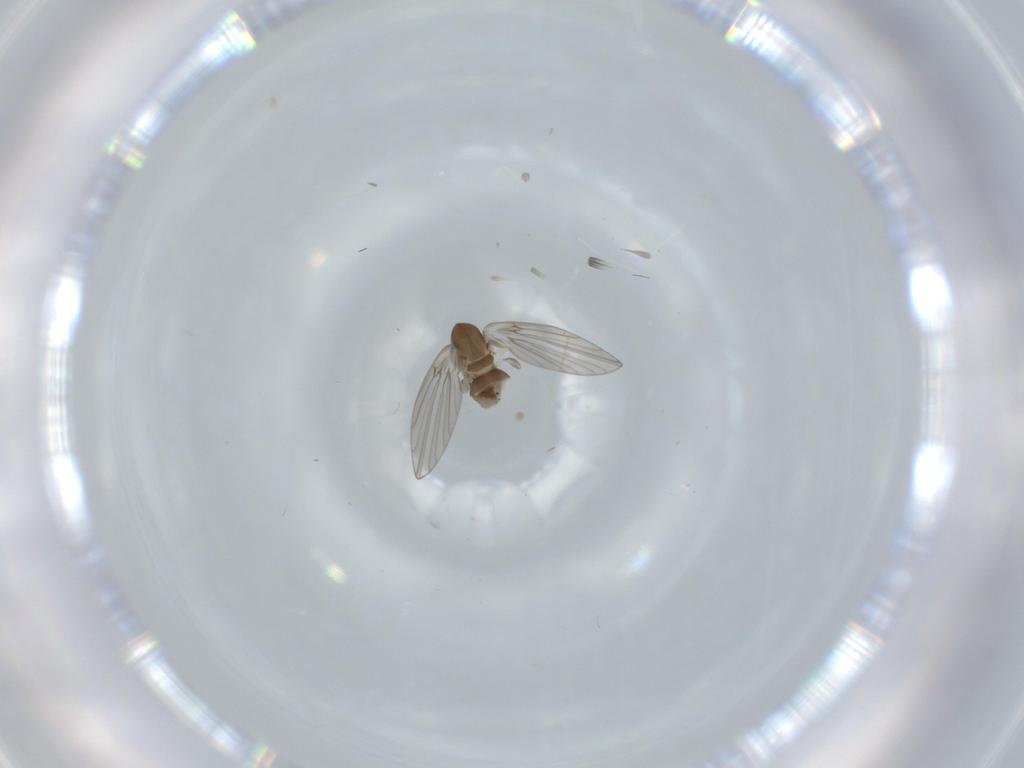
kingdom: Animalia
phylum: Arthropoda
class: Insecta
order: Diptera
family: Cecidomyiidae
